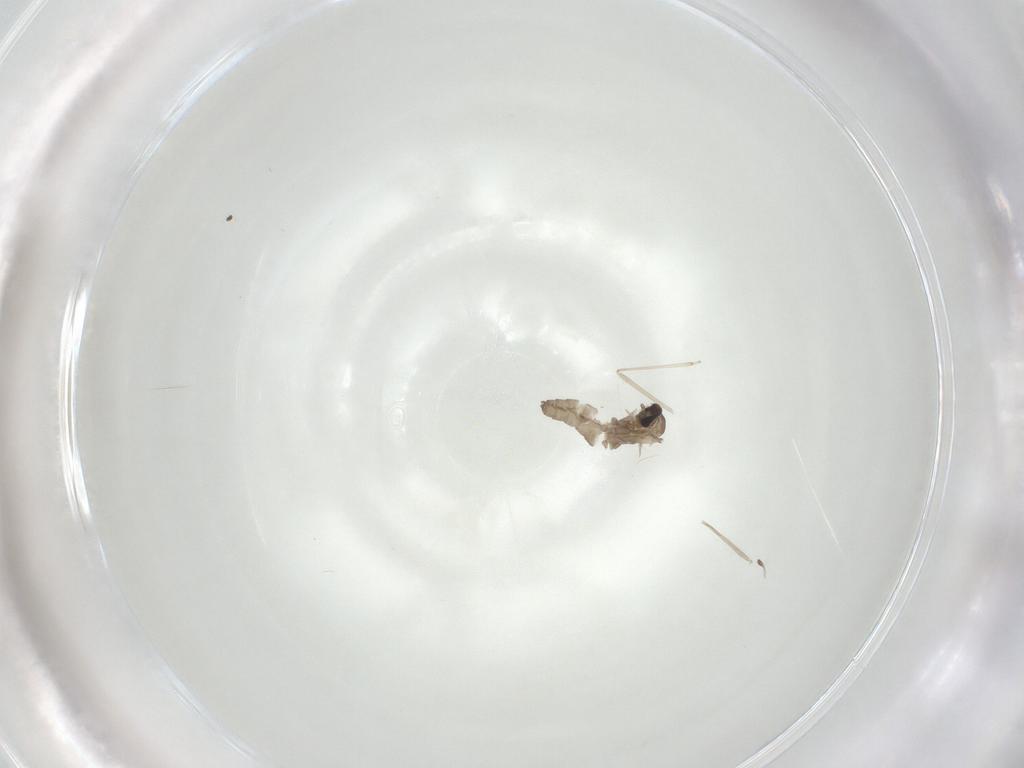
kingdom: Animalia
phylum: Arthropoda
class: Insecta
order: Diptera
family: Cecidomyiidae
